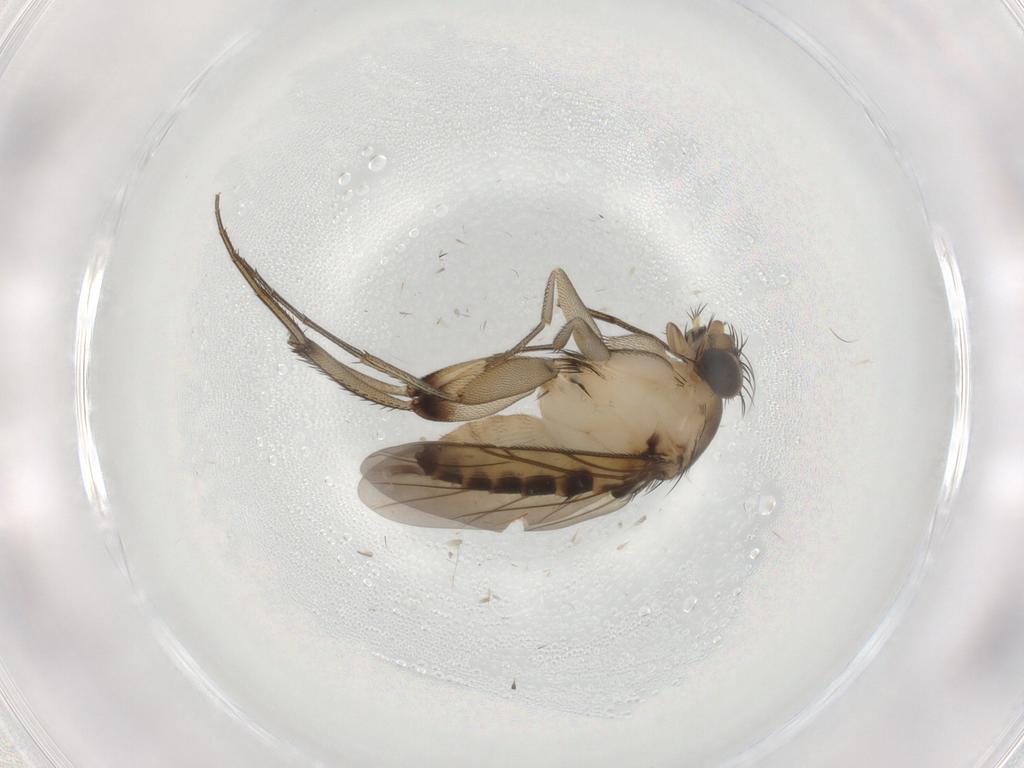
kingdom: Animalia
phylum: Arthropoda
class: Insecta
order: Diptera
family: Phoridae
